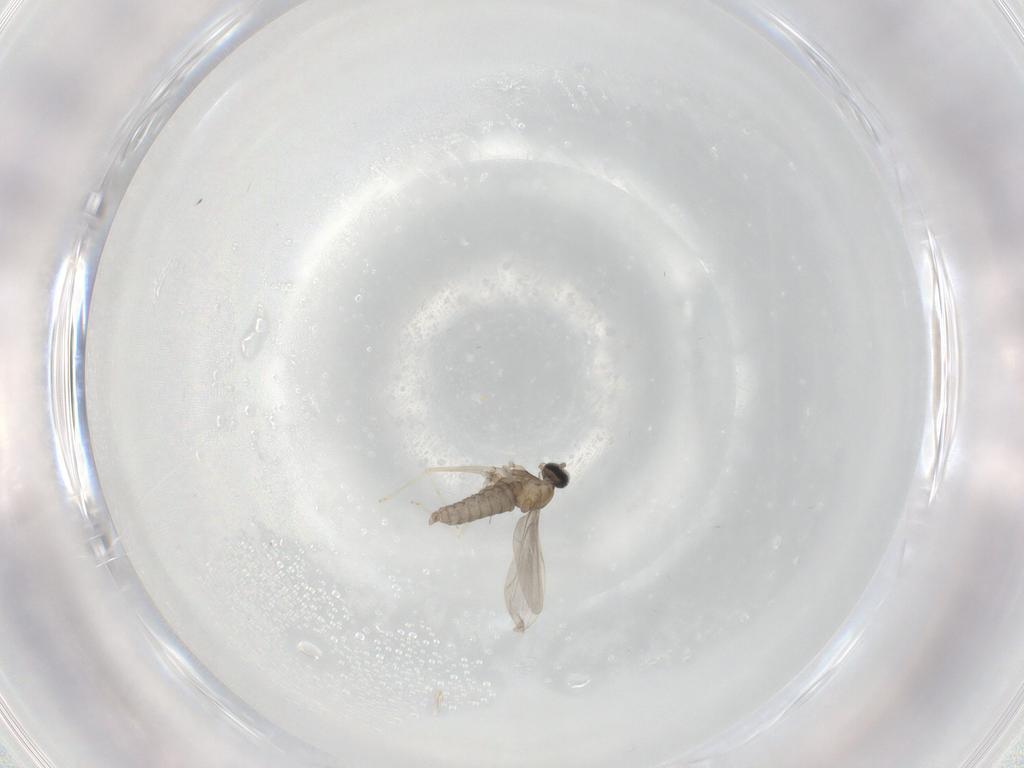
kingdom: Animalia
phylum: Arthropoda
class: Insecta
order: Diptera
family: Cecidomyiidae
